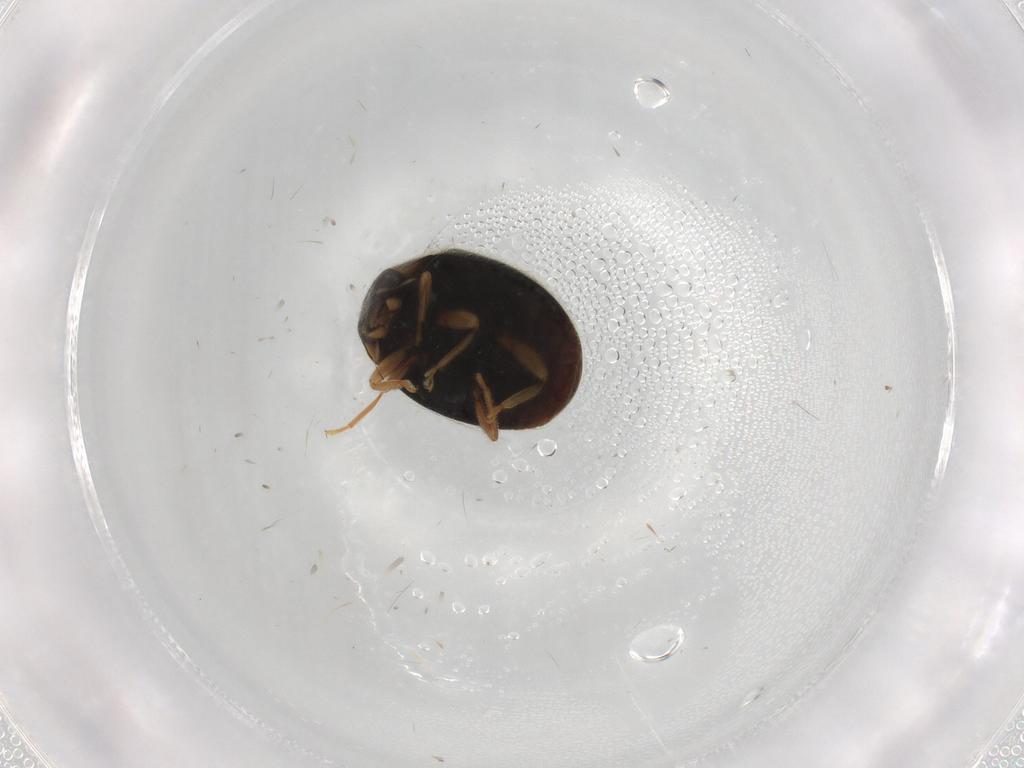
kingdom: Animalia
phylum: Arthropoda
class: Insecta
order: Coleoptera
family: Coccinellidae
